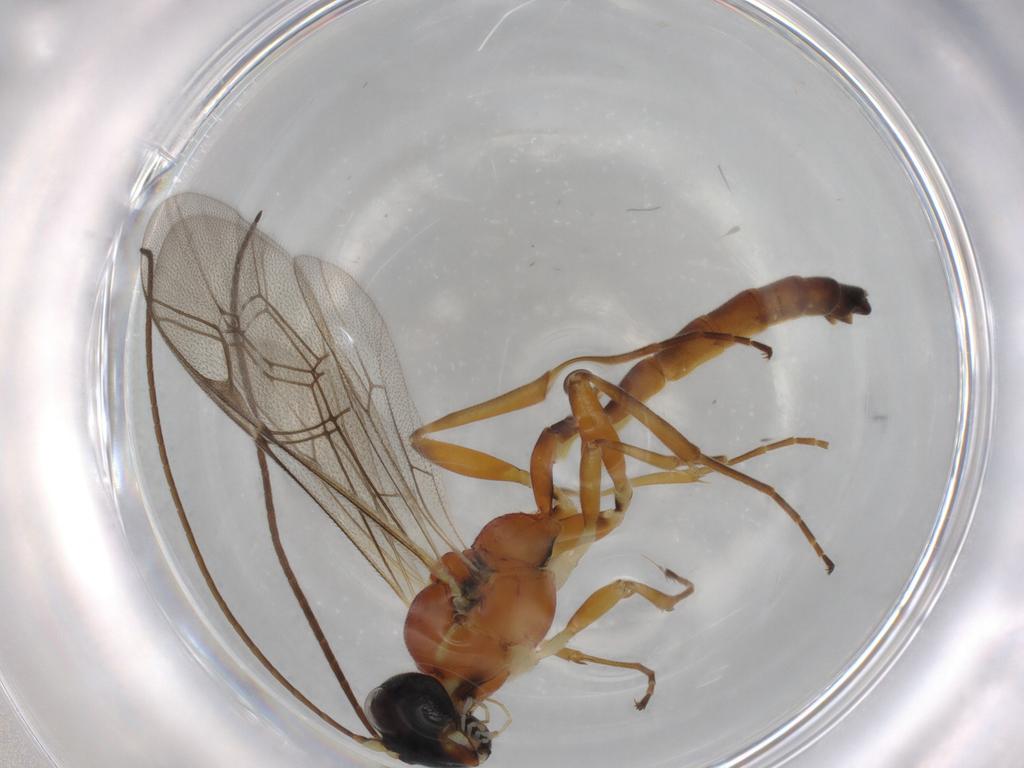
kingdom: Animalia
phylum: Arthropoda
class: Insecta
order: Hymenoptera
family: Diapriidae
